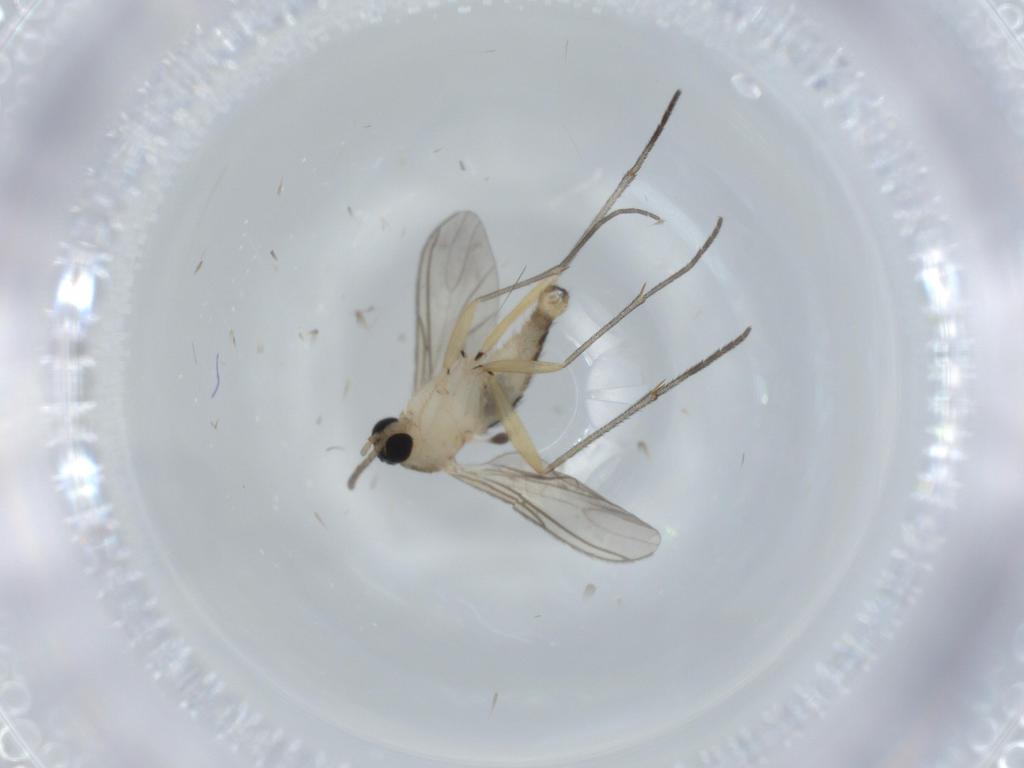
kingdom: Animalia
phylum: Arthropoda
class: Insecta
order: Diptera
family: Sciaridae
